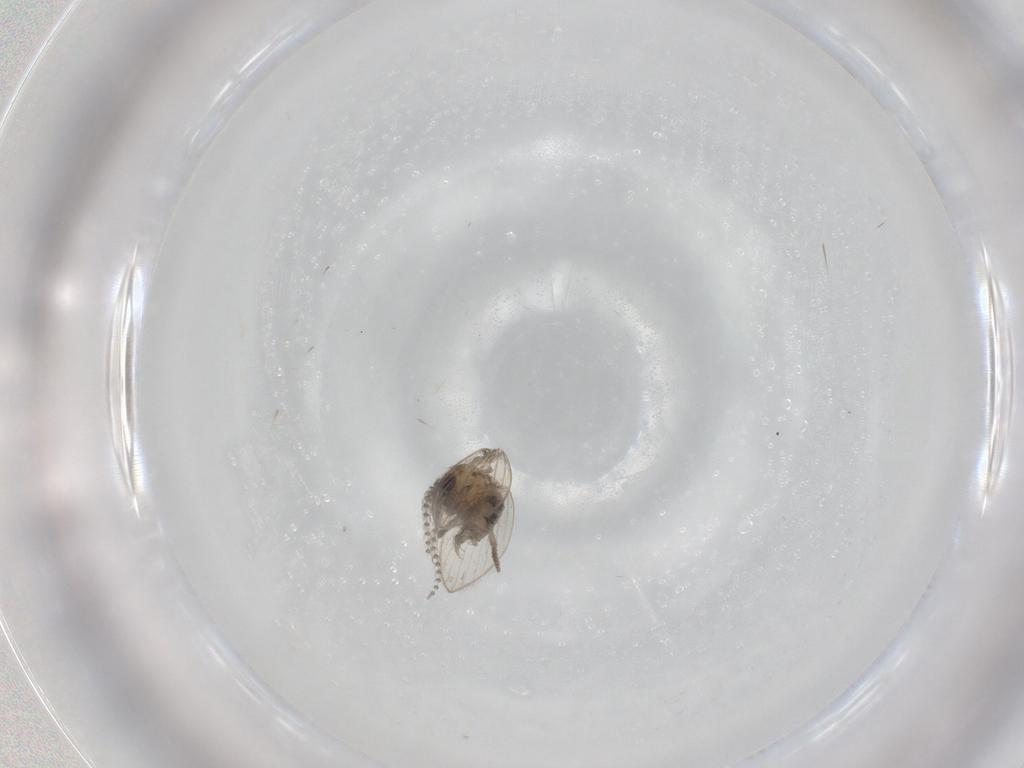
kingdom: Animalia
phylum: Arthropoda
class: Insecta
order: Diptera
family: Psychodidae
